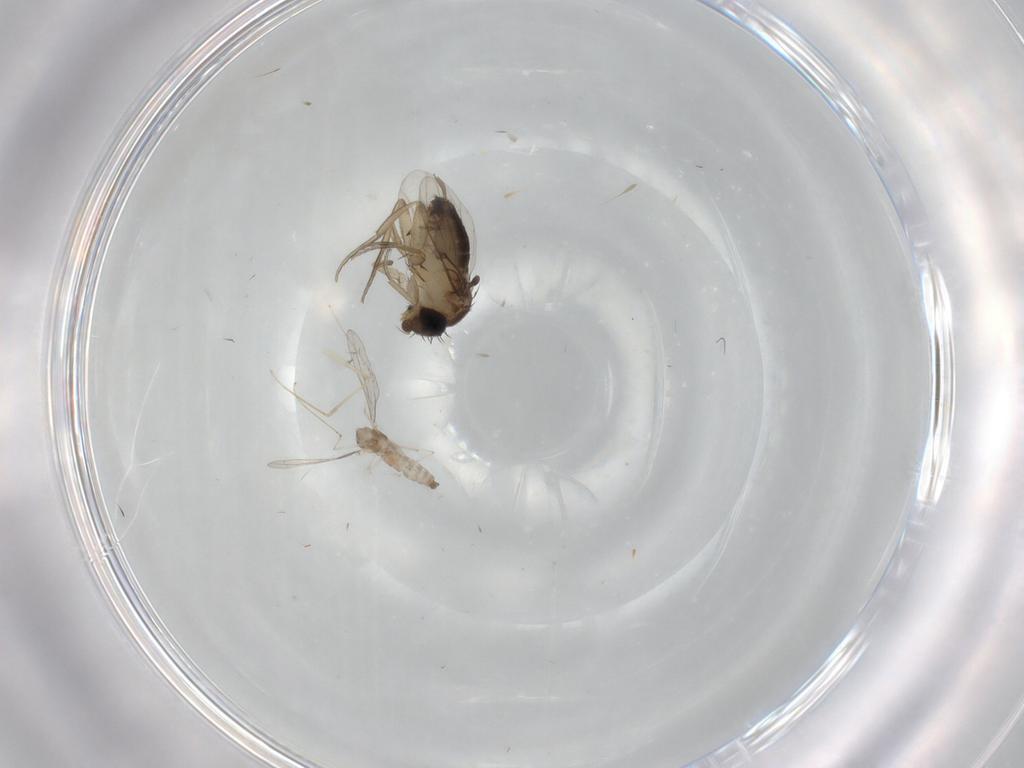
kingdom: Animalia
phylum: Arthropoda
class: Insecta
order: Diptera
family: Cecidomyiidae
